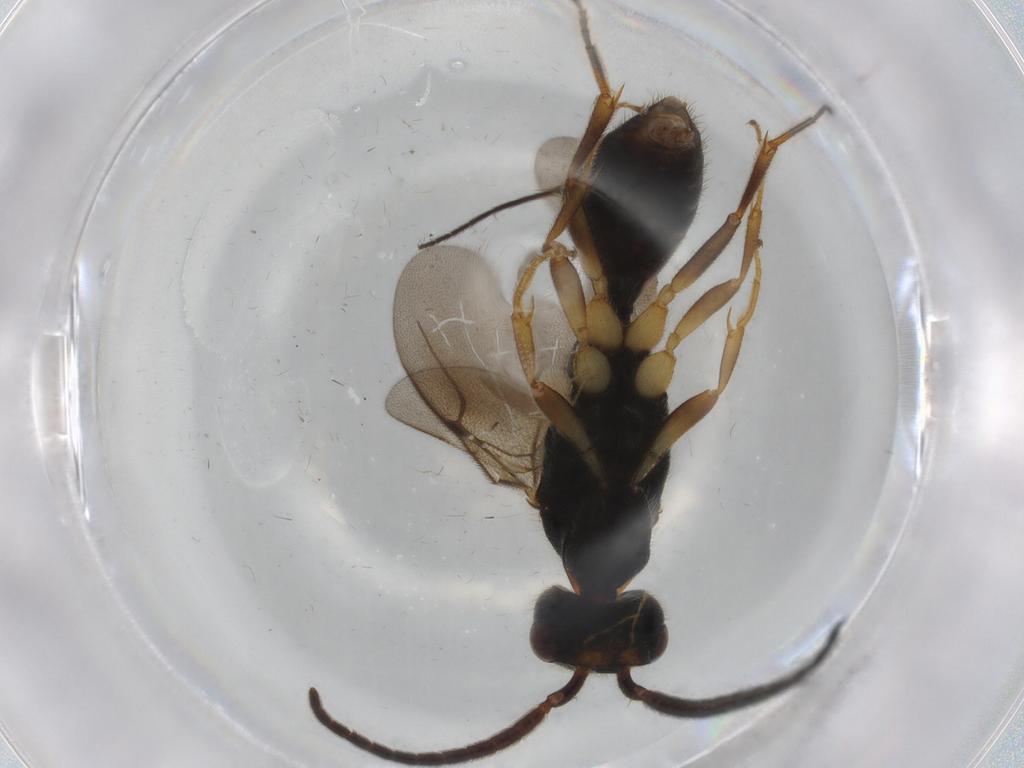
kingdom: Animalia
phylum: Arthropoda
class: Insecta
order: Hymenoptera
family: Bethylidae
